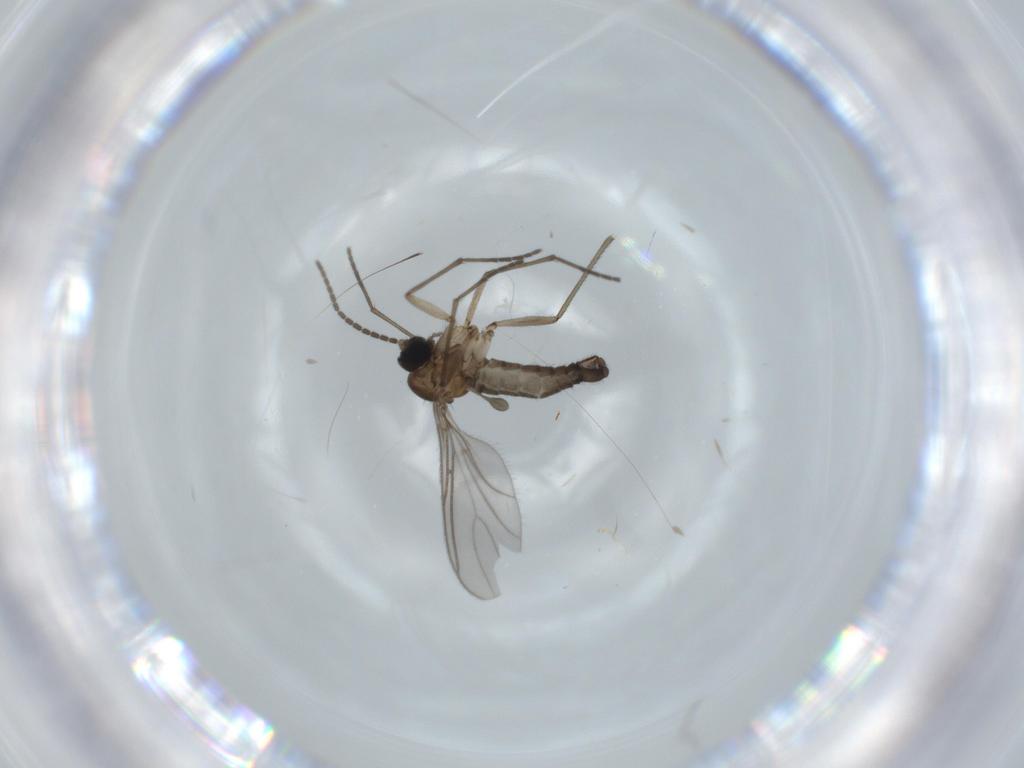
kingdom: Animalia
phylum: Arthropoda
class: Insecta
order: Diptera
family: Sciaridae
